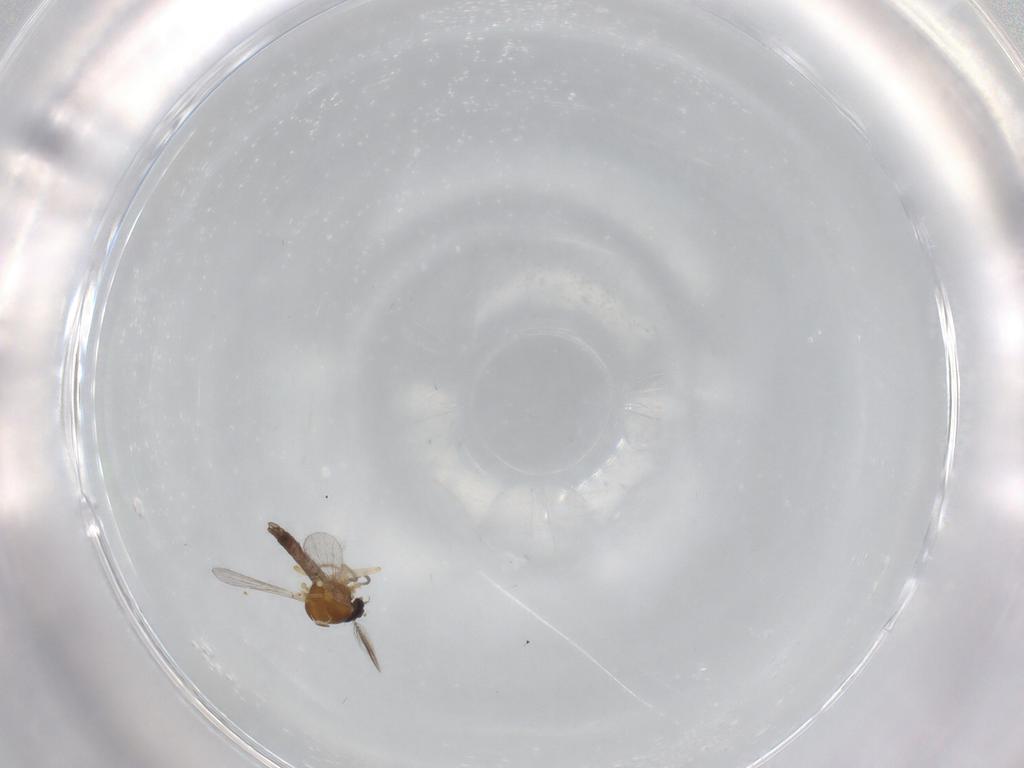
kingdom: Animalia
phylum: Arthropoda
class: Insecta
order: Diptera
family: Ceratopogonidae
